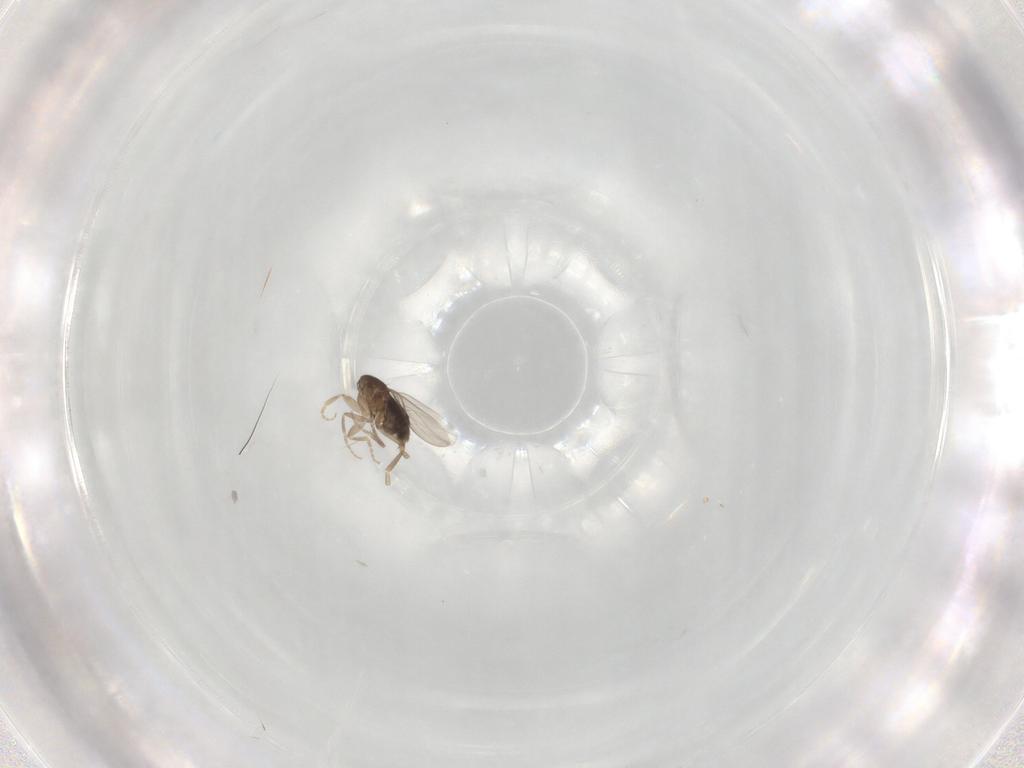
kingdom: Animalia
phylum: Arthropoda
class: Insecta
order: Diptera
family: Phoridae
